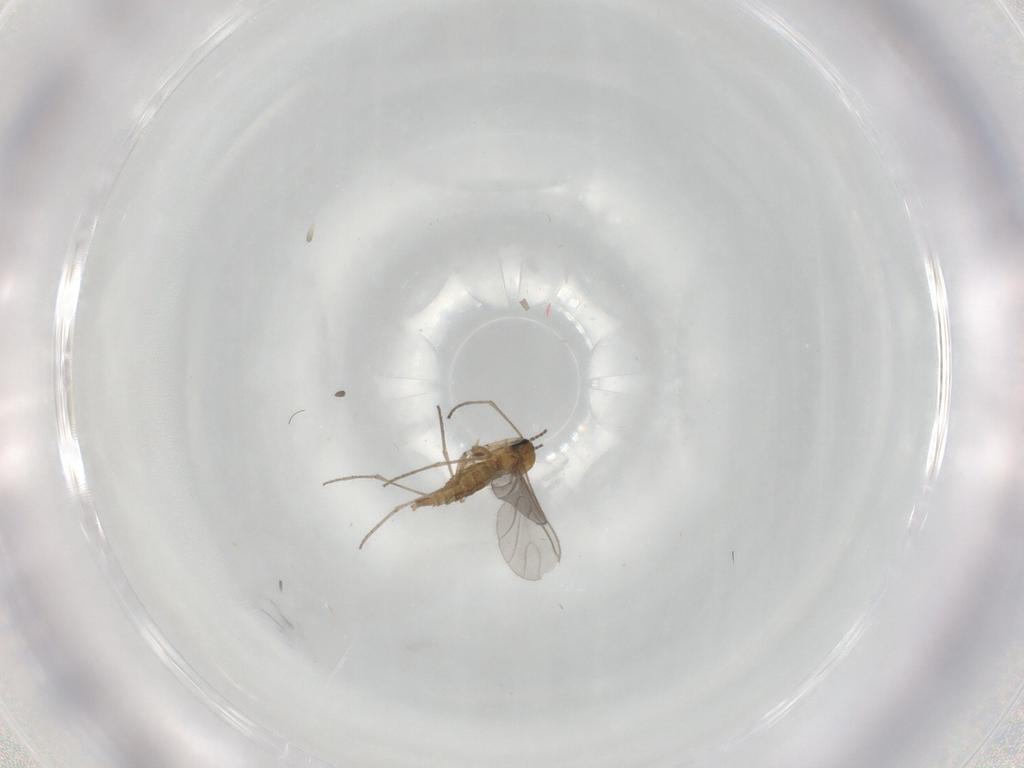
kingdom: Animalia
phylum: Arthropoda
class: Insecta
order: Diptera
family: Sciaridae
